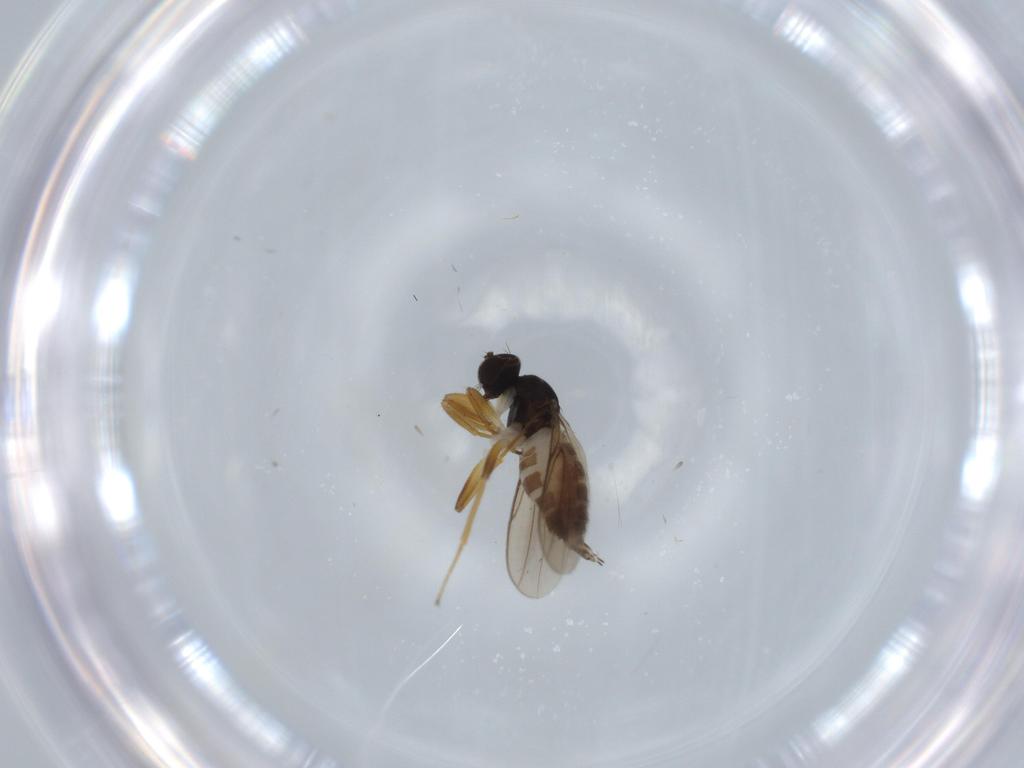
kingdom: Animalia
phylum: Arthropoda
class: Insecta
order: Diptera
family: Hybotidae
